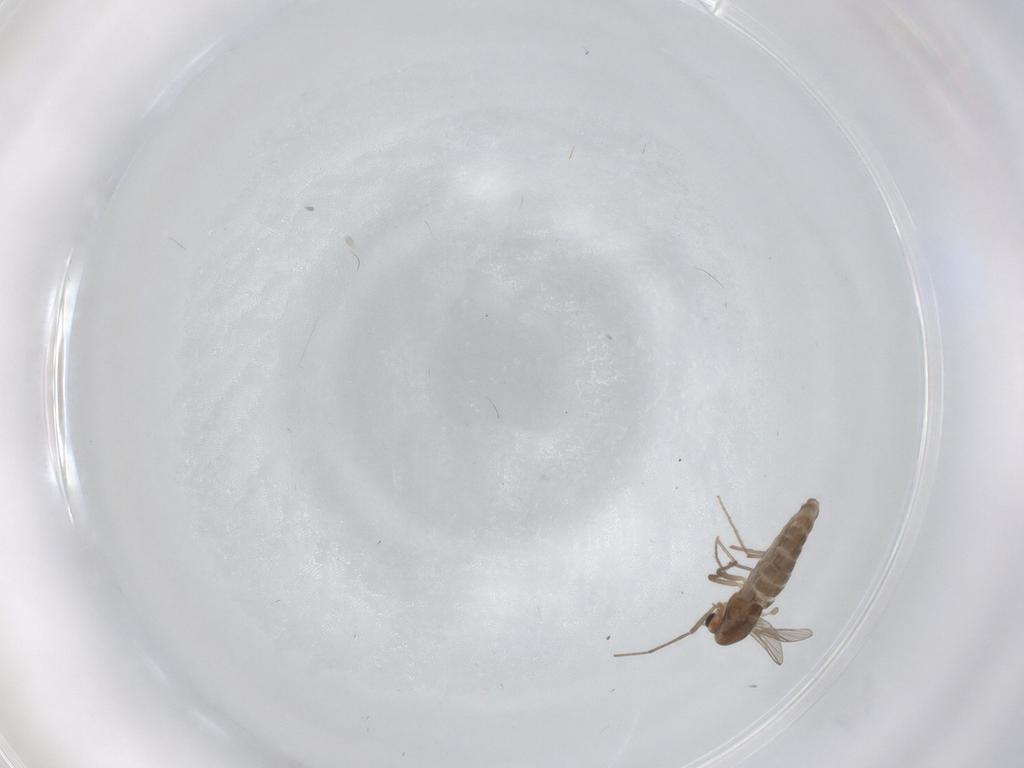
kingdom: Animalia
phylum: Arthropoda
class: Insecta
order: Diptera
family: Chironomidae
